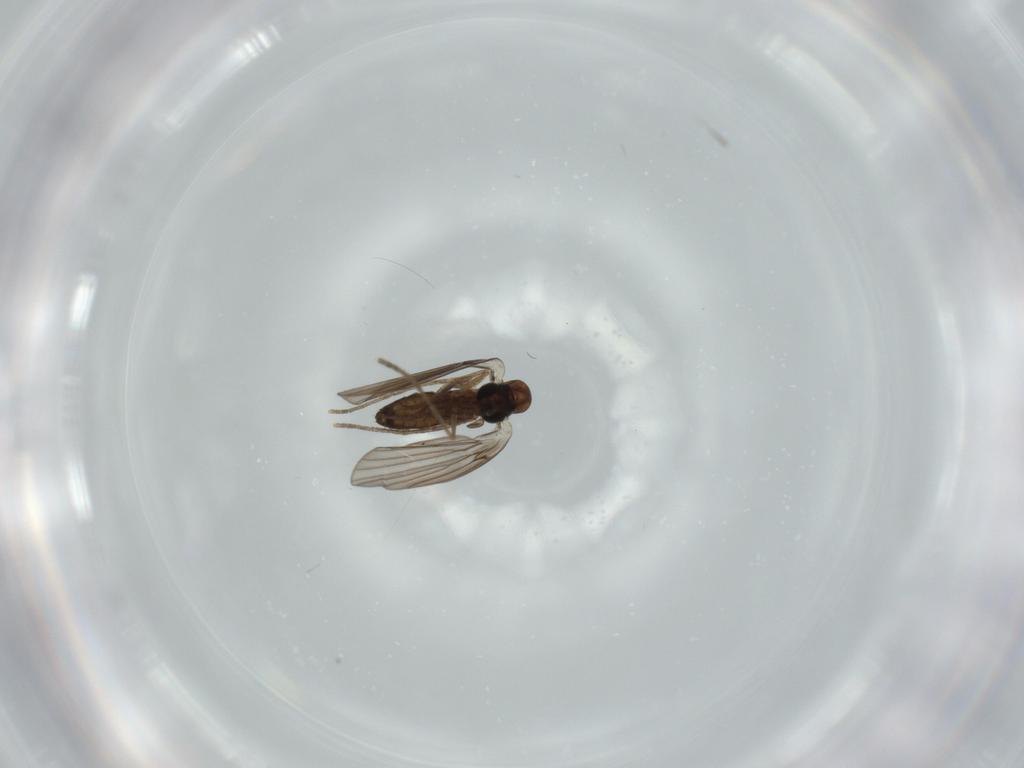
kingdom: Animalia
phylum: Arthropoda
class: Insecta
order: Diptera
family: Psychodidae
